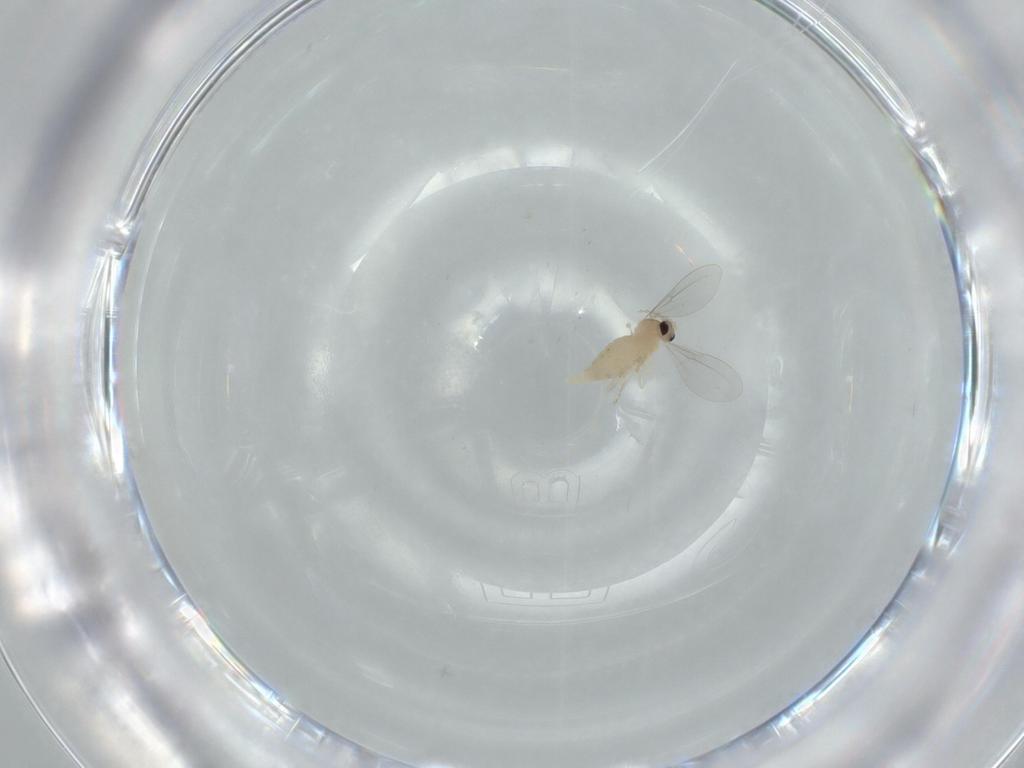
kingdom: Animalia
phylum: Arthropoda
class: Insecta
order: Diptera
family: Cecidomyiidae
